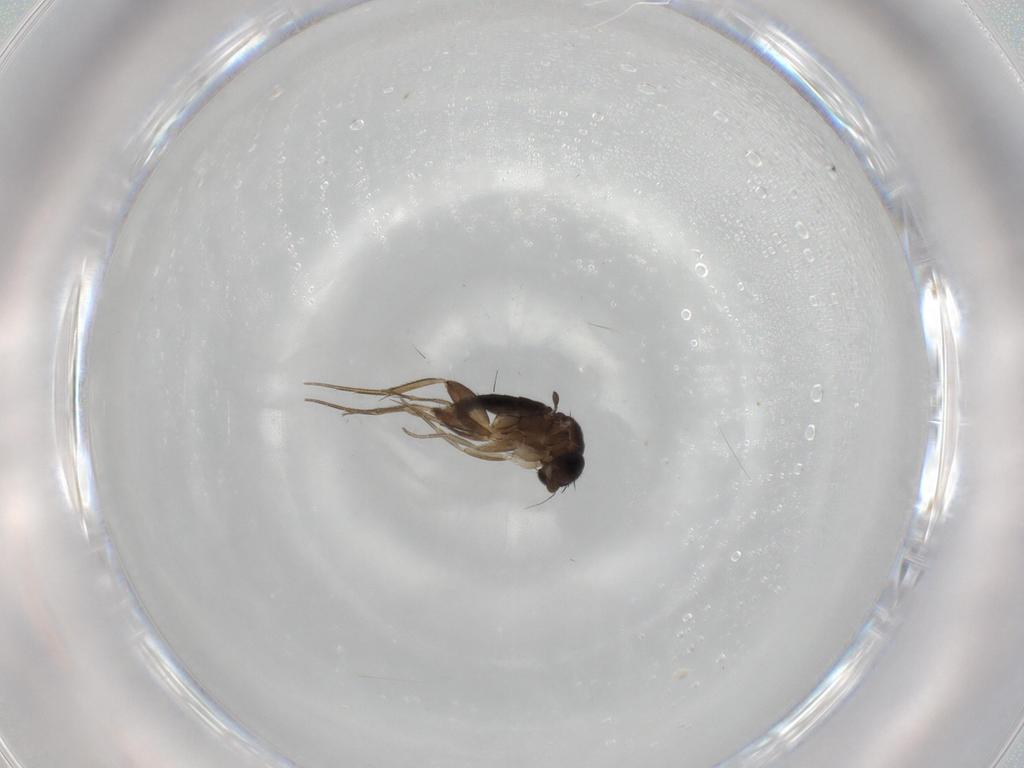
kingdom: Animalia
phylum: Arthropoda
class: Insecta
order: Diptera
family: Phoridae
